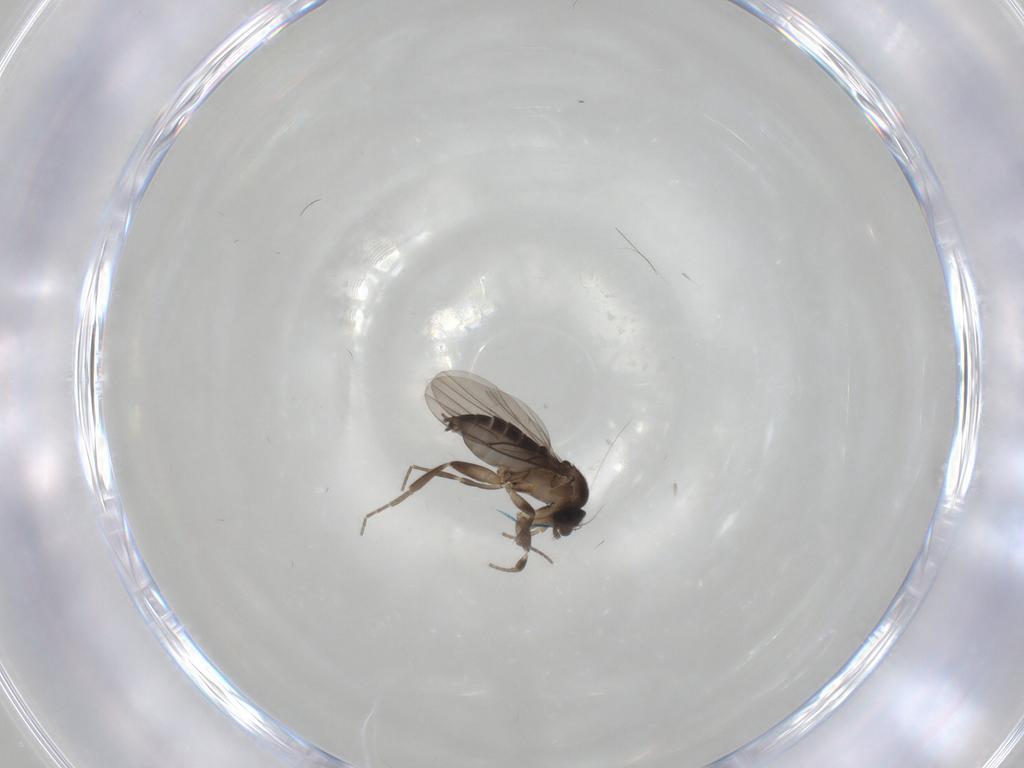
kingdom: Animalia
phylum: Arthropoda
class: Insecta
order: Diptera
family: Phoridae
